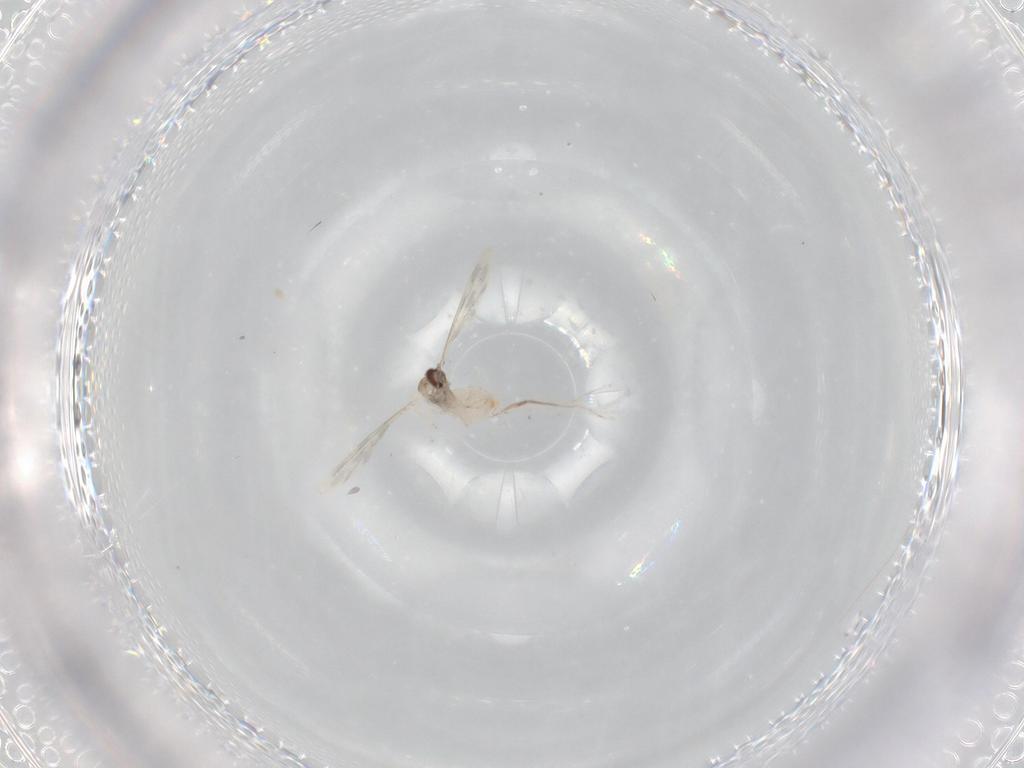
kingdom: Animalia
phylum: Arthropoda
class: Insecta
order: Diptera
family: Cecidomyiidae
